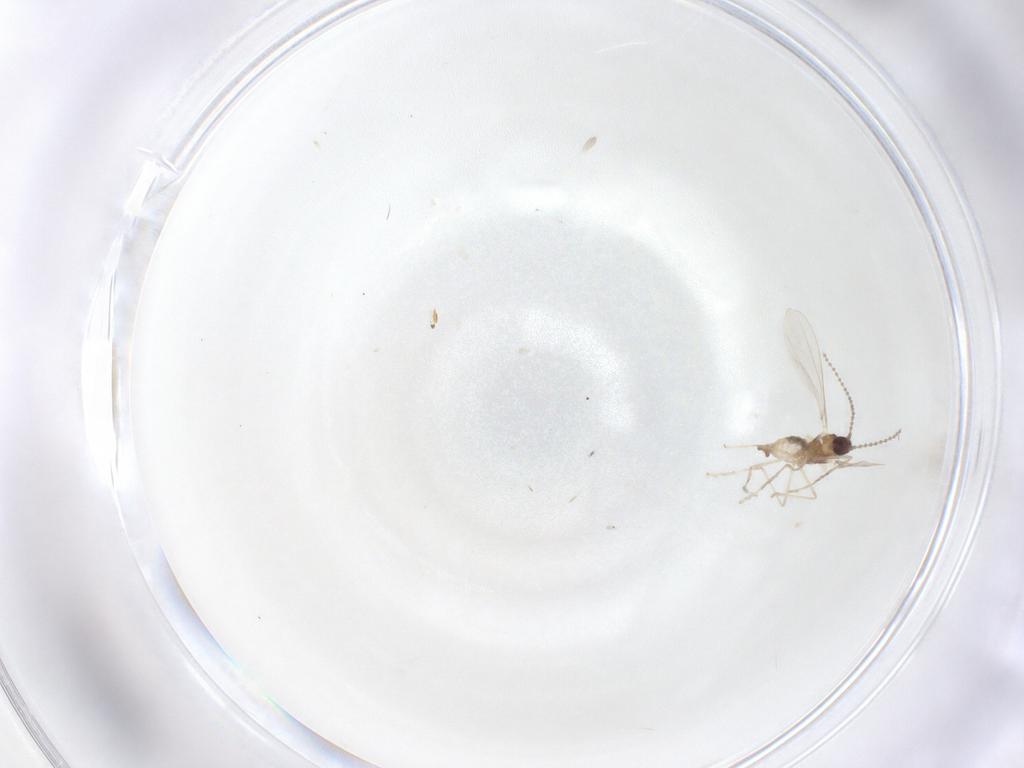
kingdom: Animalia
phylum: Arthropoda
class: Insecta
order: Diptera
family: Cecidomyiidae
